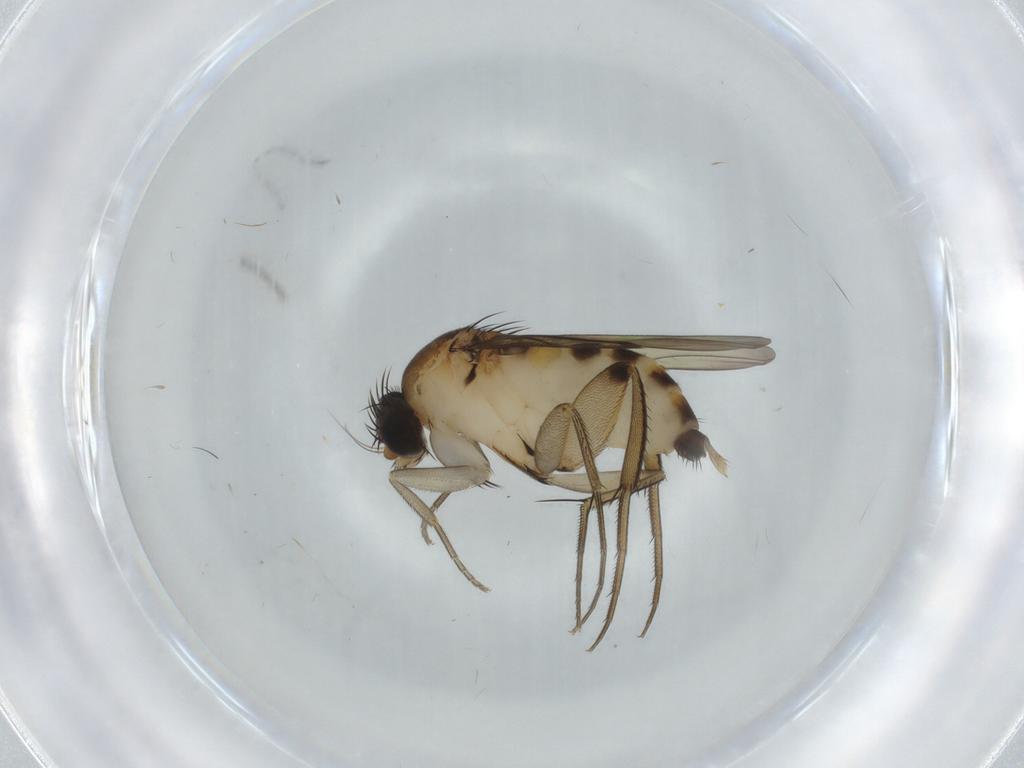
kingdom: Animalia
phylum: Arthropoda
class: Insecta
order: Diptera
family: Phoridae
